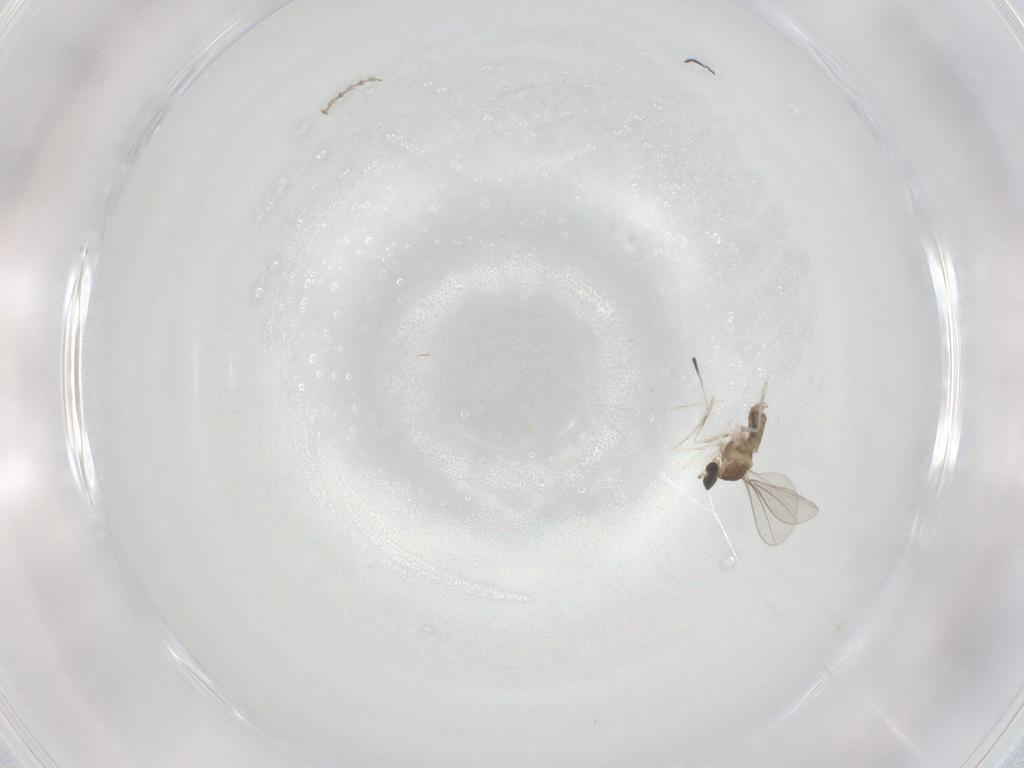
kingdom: Animalia
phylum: Arthropoda
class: Insecta
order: Diptera
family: Cecidomyiidae
